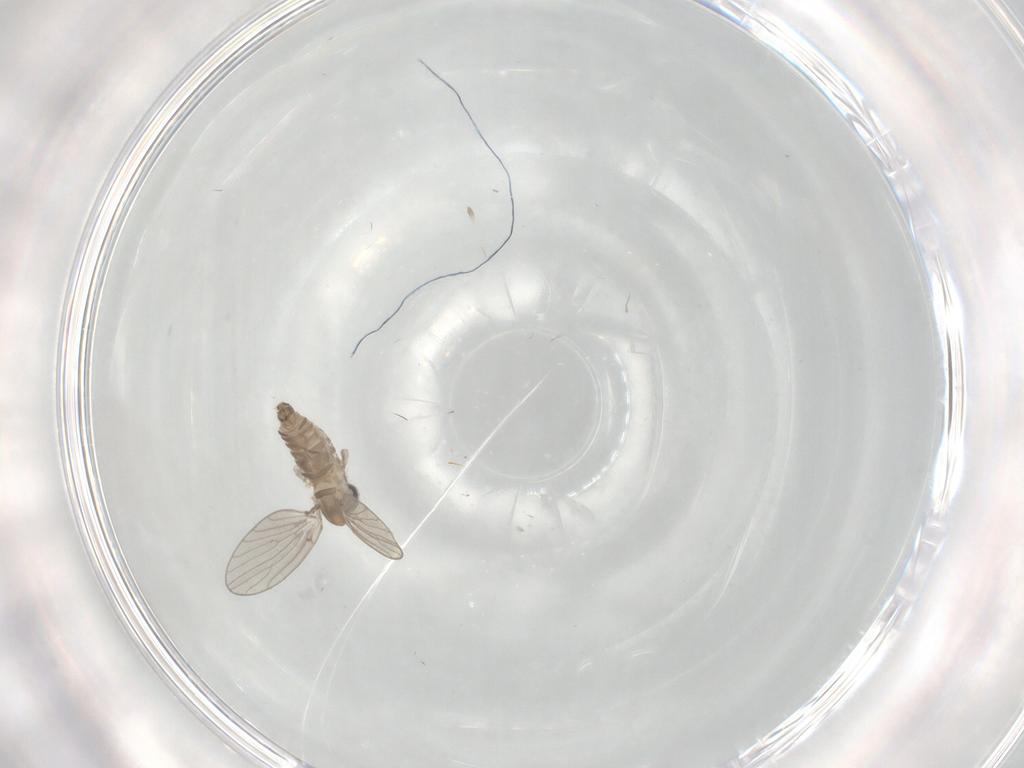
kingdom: Animalia
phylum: Arthropoda
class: Insecta
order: Diptera
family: Psychodidae
